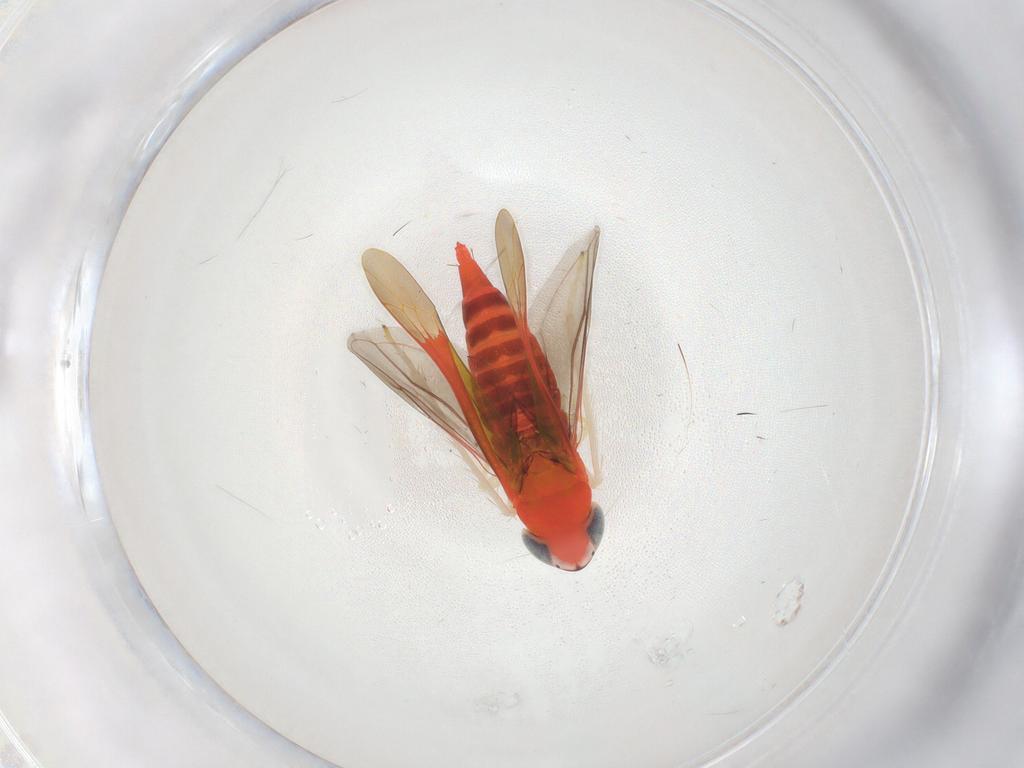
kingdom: Animalia
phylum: Arthropoda
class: Insecta
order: Hemiptera
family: Cicadellidae
